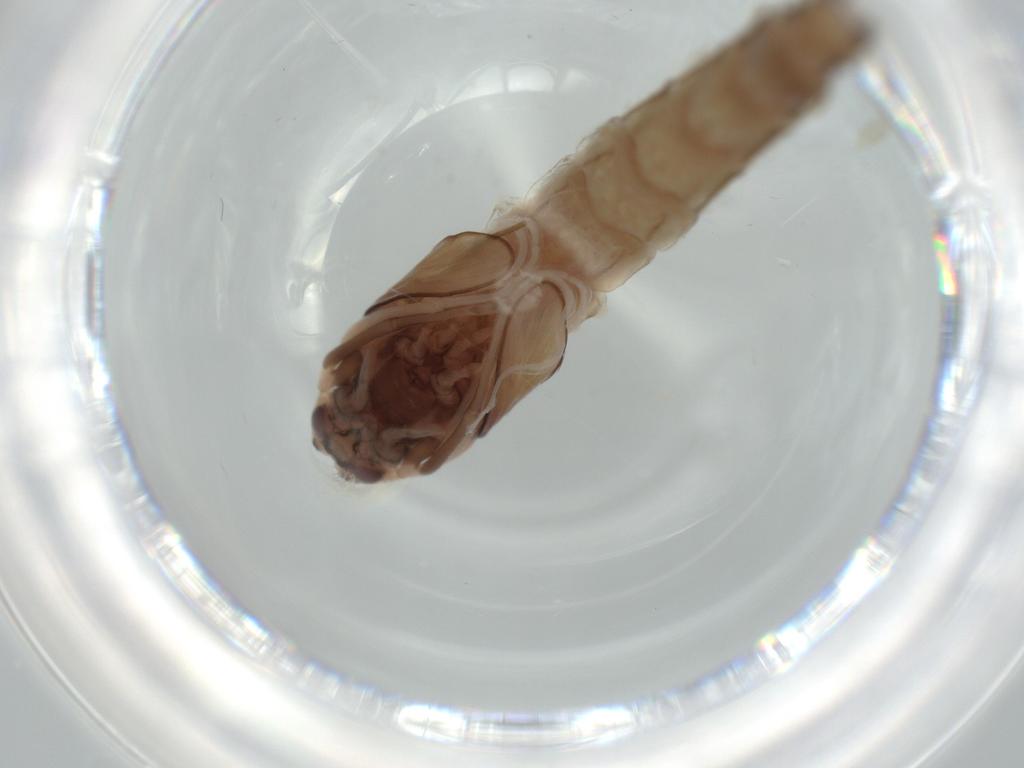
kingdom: Animalia
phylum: Arthropoda
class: Insecta
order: Diptera
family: Chironomidae
